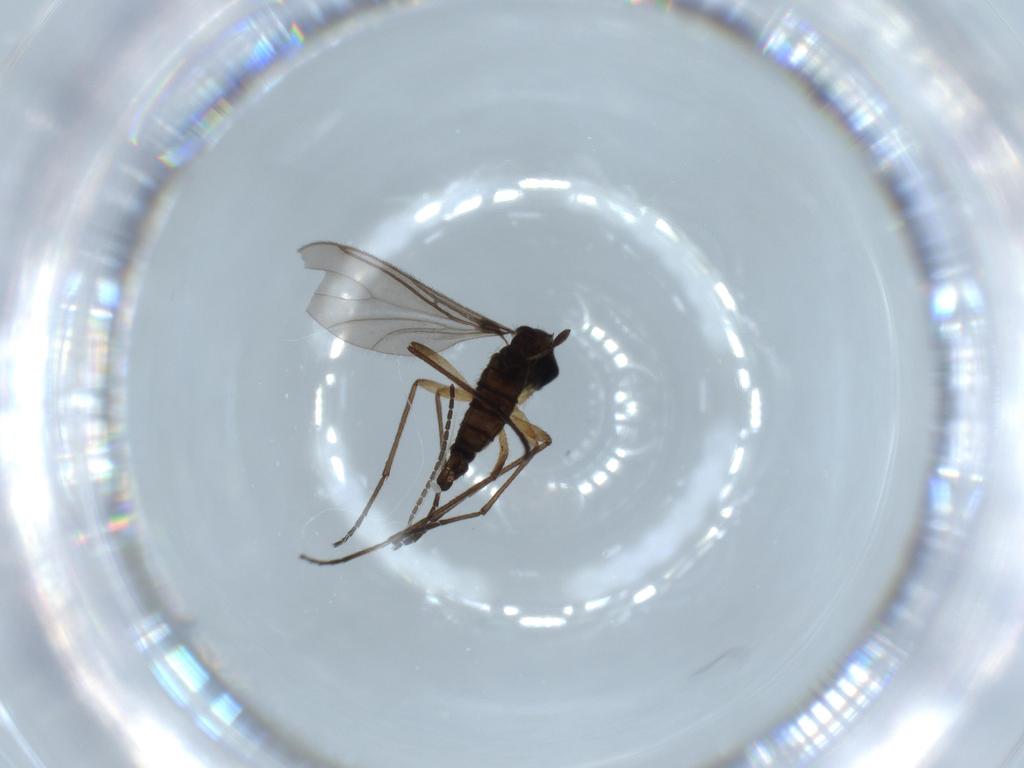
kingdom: Animalia
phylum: Arthropoda
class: Insecta
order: Diptera
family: Sciaridae
